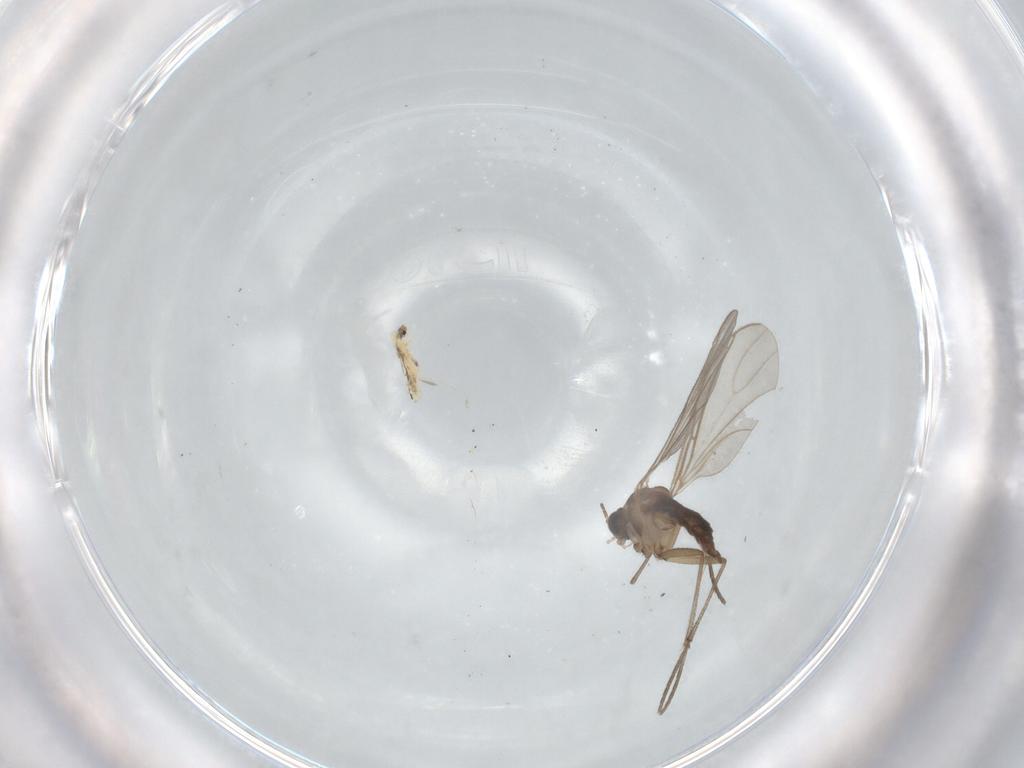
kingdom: Animalia
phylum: Arthropoda
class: Insecta
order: Diptera
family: Sciaridae
